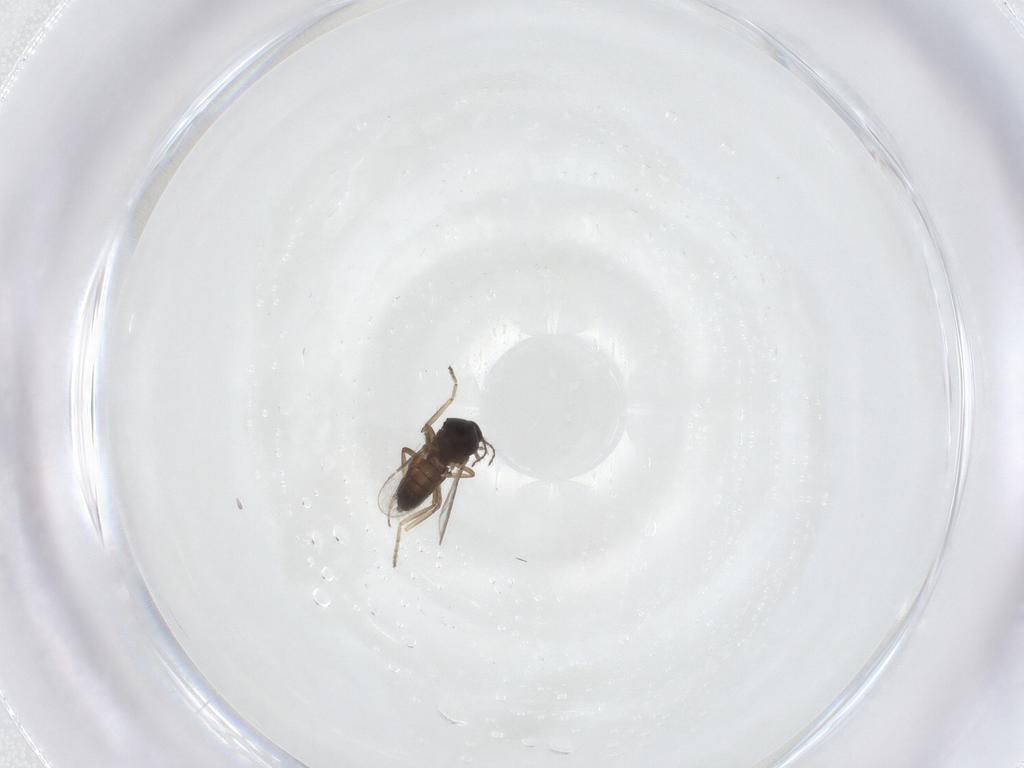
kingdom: Animalia
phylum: Arthropoda
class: Insecta
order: Diptera
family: Ceratopogonidae
